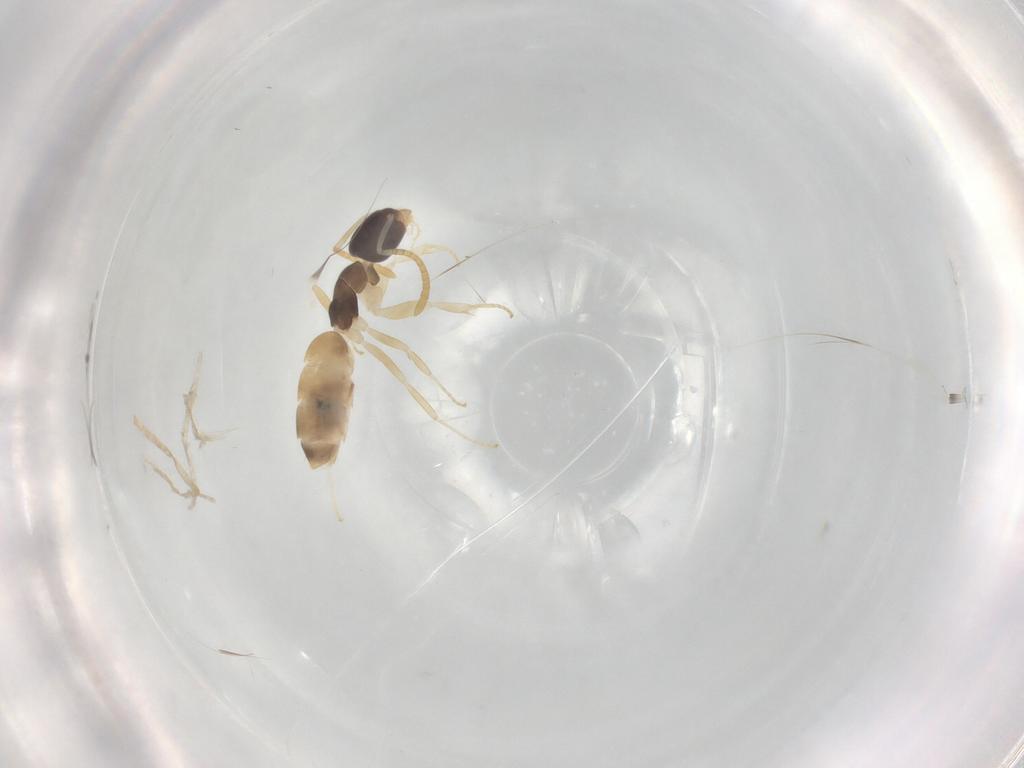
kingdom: Animalia
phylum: Arthropoda
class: Insecta
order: Hymenoptera
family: Formicidae
